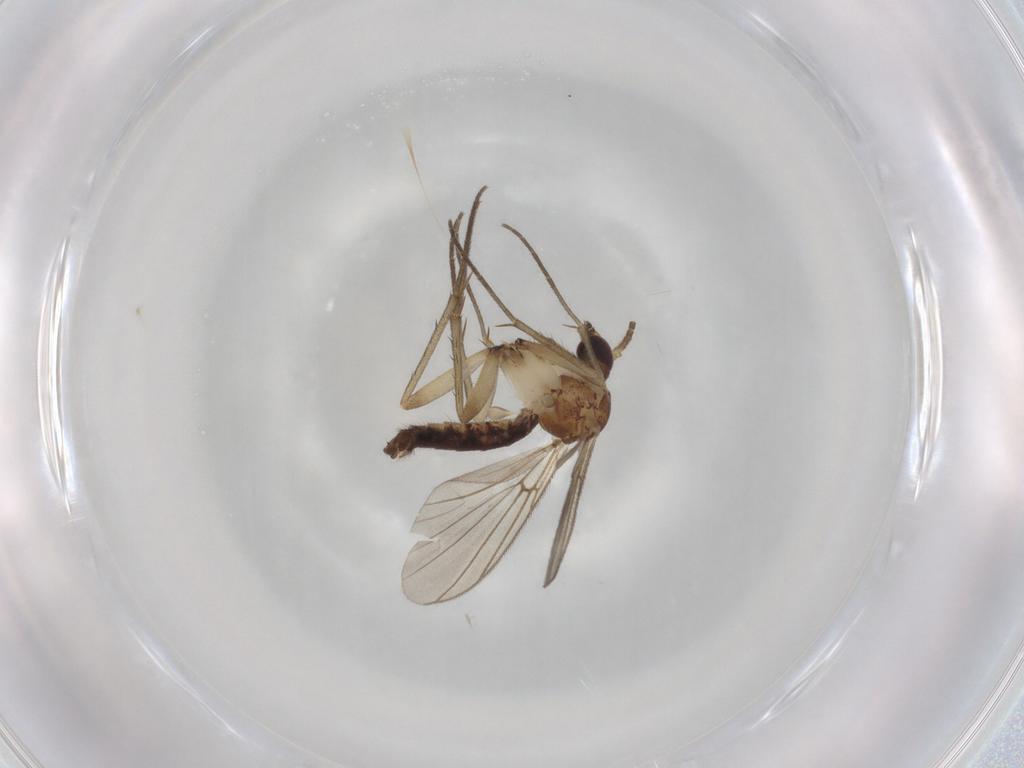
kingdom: Animalia
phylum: Arthropoda
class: Insecta
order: Diptera
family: Mycetophilidae
